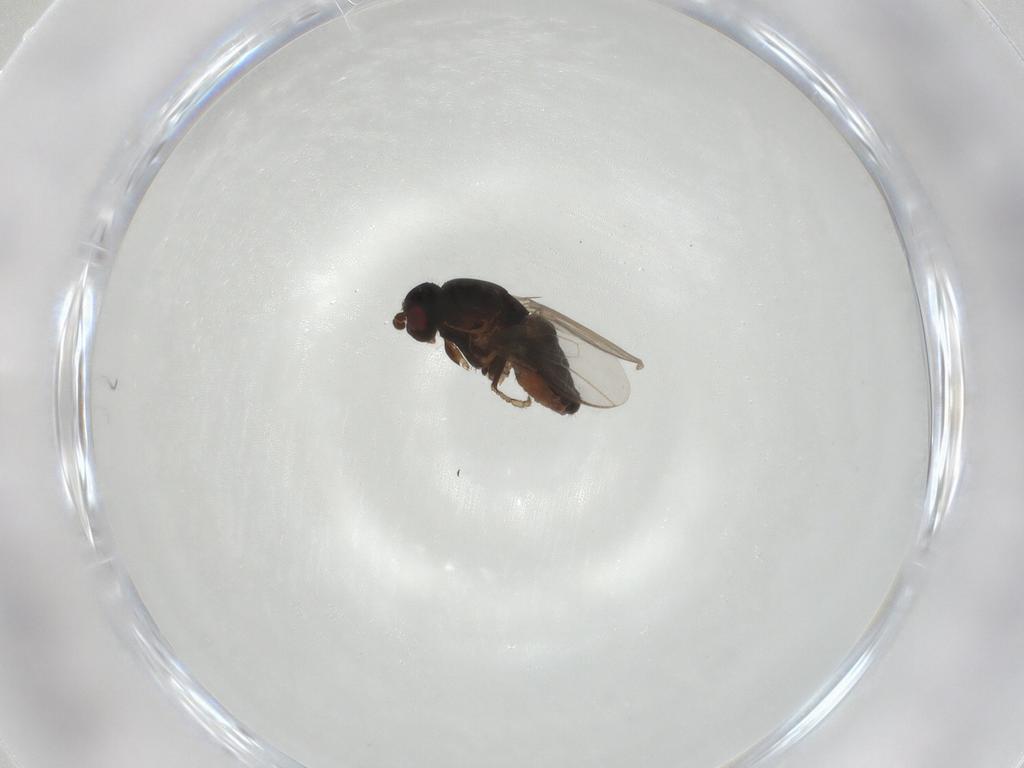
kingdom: Animalia
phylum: Arthropoda
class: Insecta
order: Diptera
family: Sphaeroceridae
